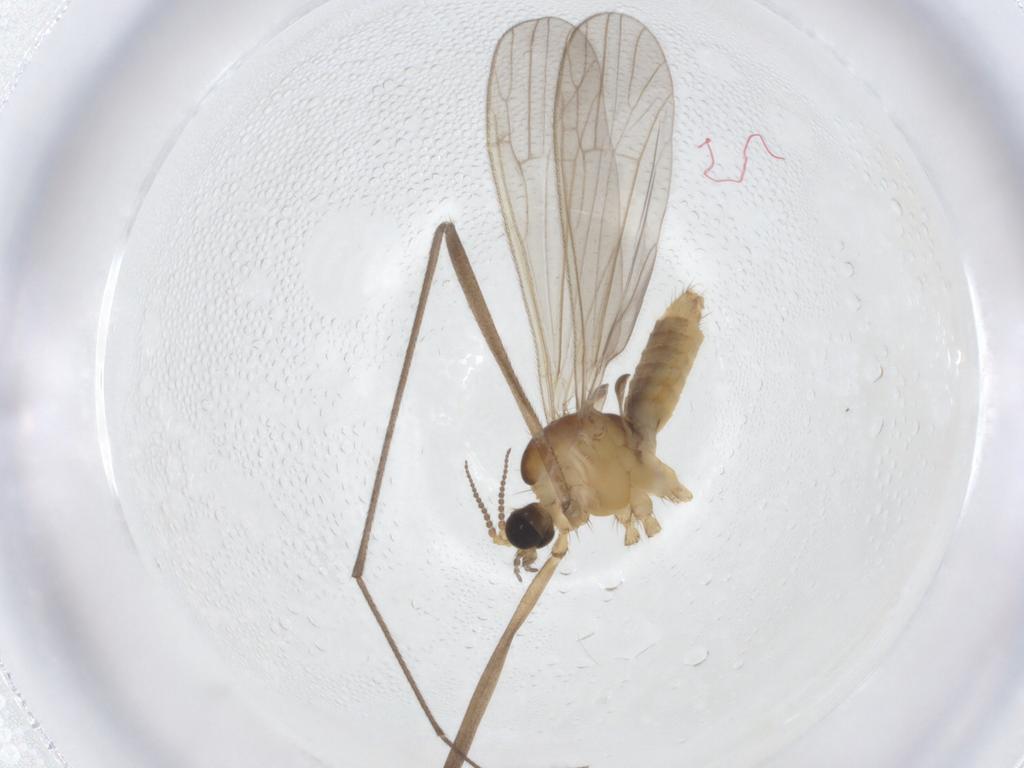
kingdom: Animalia
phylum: Arthropoda
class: Insecta
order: Diptera
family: Limoniidae
